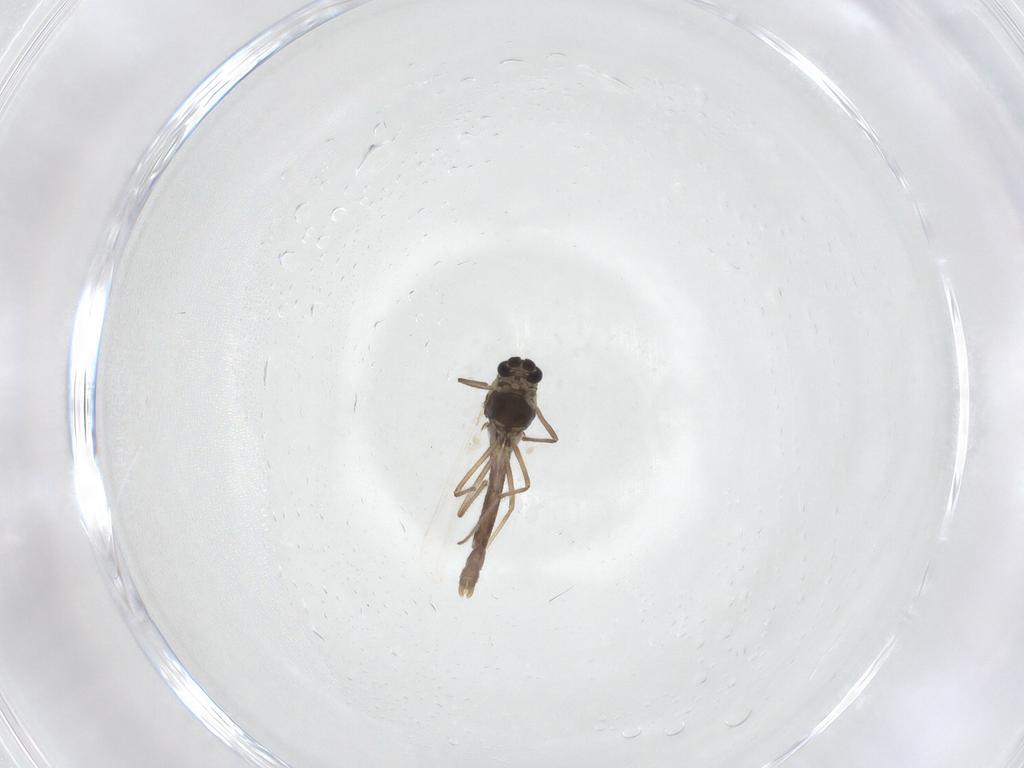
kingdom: Animalia
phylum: Arthropoda
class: Insecta
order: Diptera
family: Chironomidae
